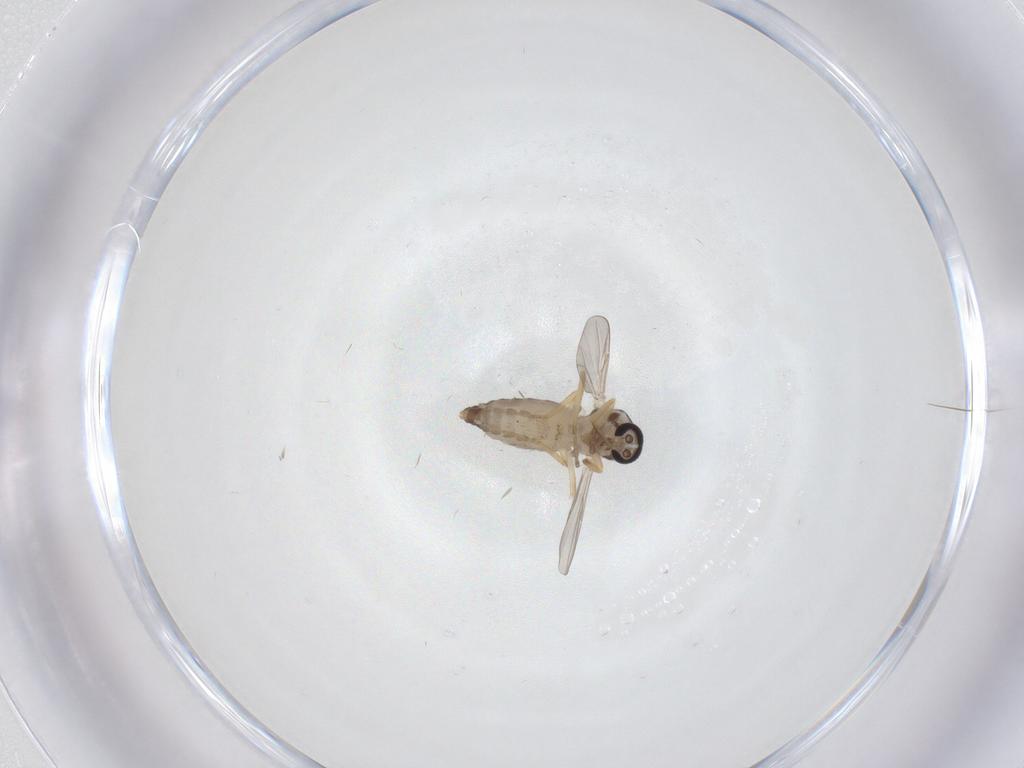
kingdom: Animalia
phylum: Arthropoda
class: Insecta
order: Diptera
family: Ceratopogonidae
